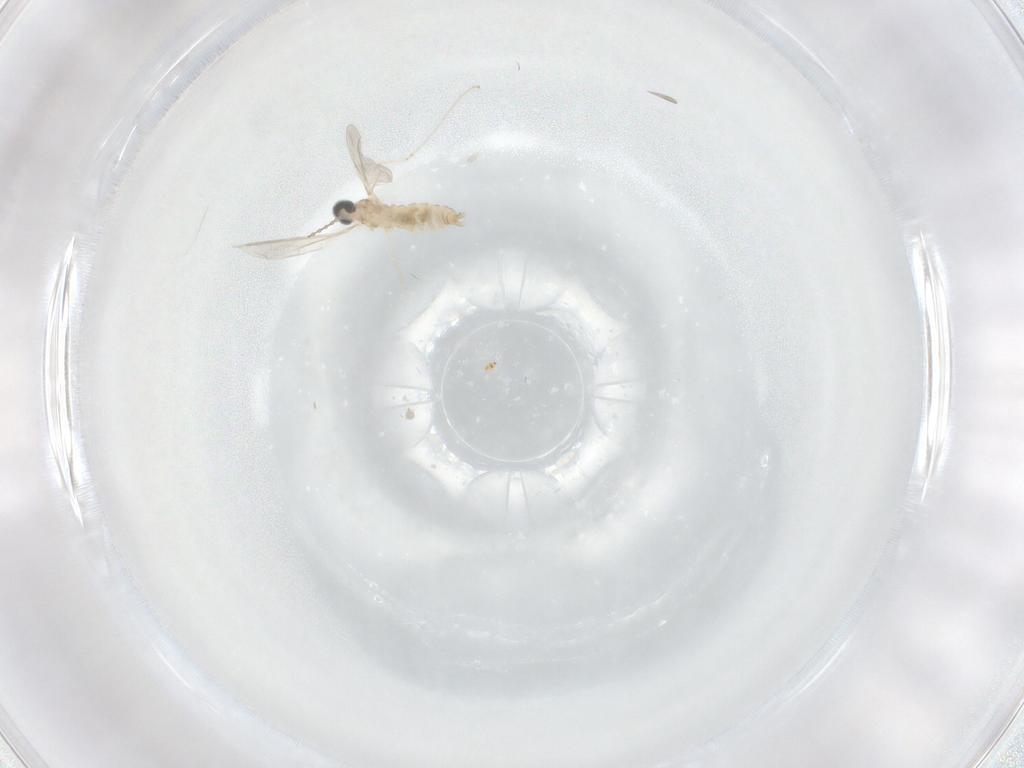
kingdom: Animalia
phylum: Arthropoda
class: Insecta
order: Diptera
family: Cecidomyiidae
